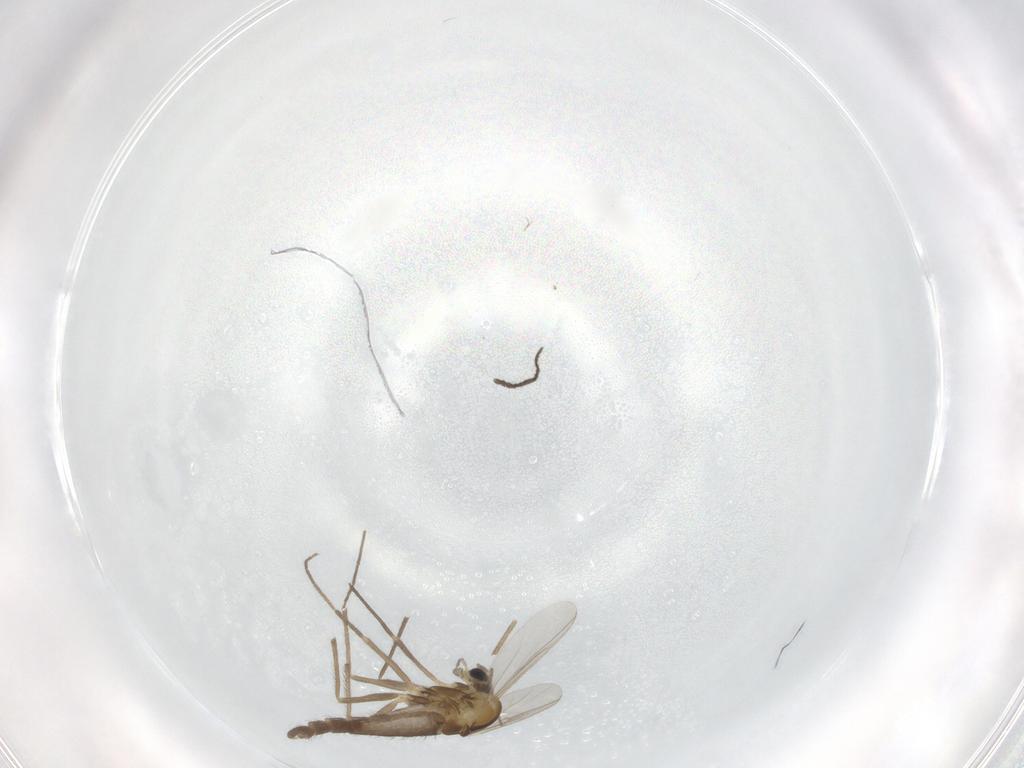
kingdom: Animalia
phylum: Arthropoda
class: Insecta
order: Diptera
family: Chironomidae
